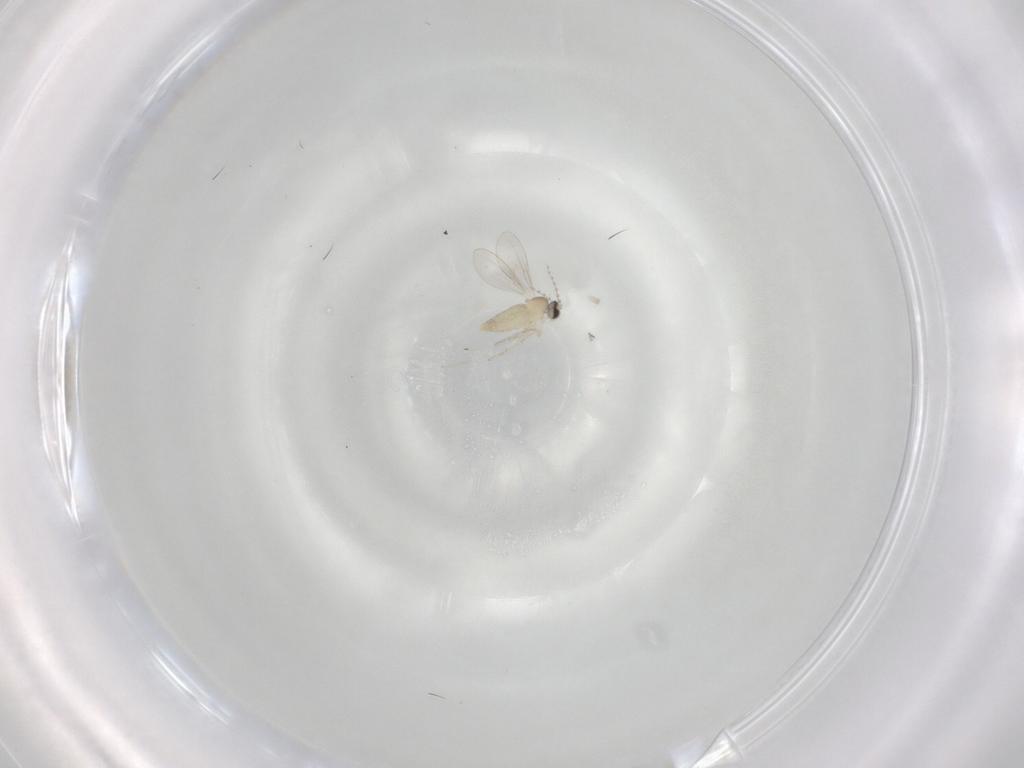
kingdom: Animalia
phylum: Arthropoda
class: Insecta
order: Diptera
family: Cecidomyiidae
